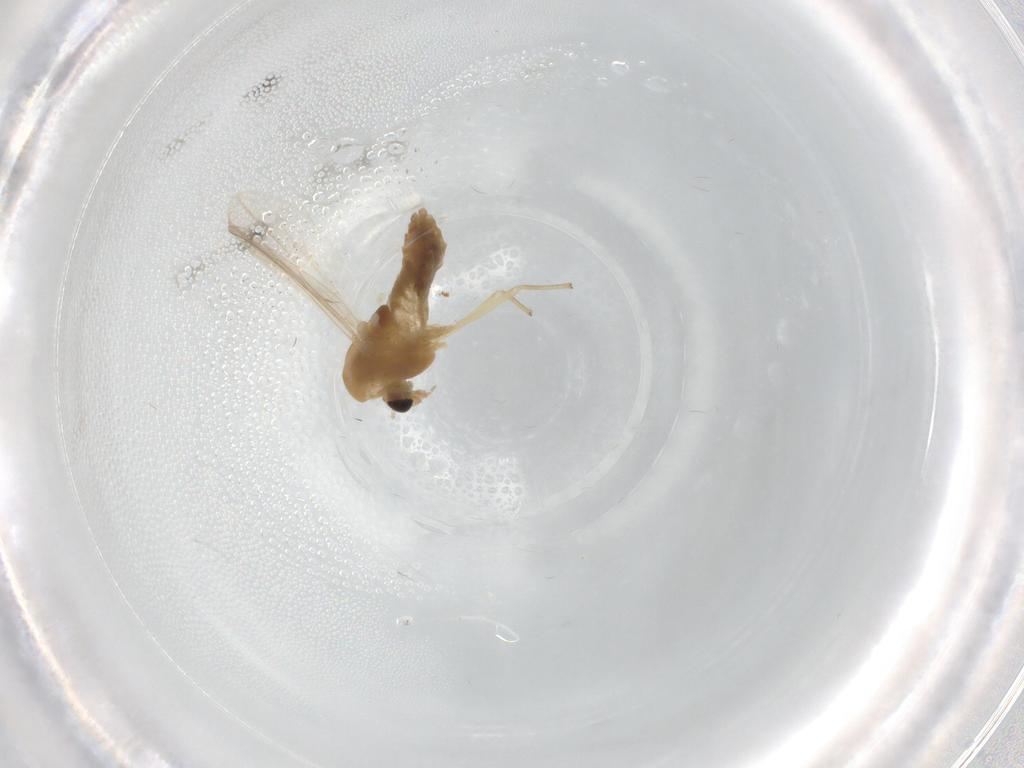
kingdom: Animalia
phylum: Arthropoda
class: Insecta
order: Diptera
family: Chironomidae
